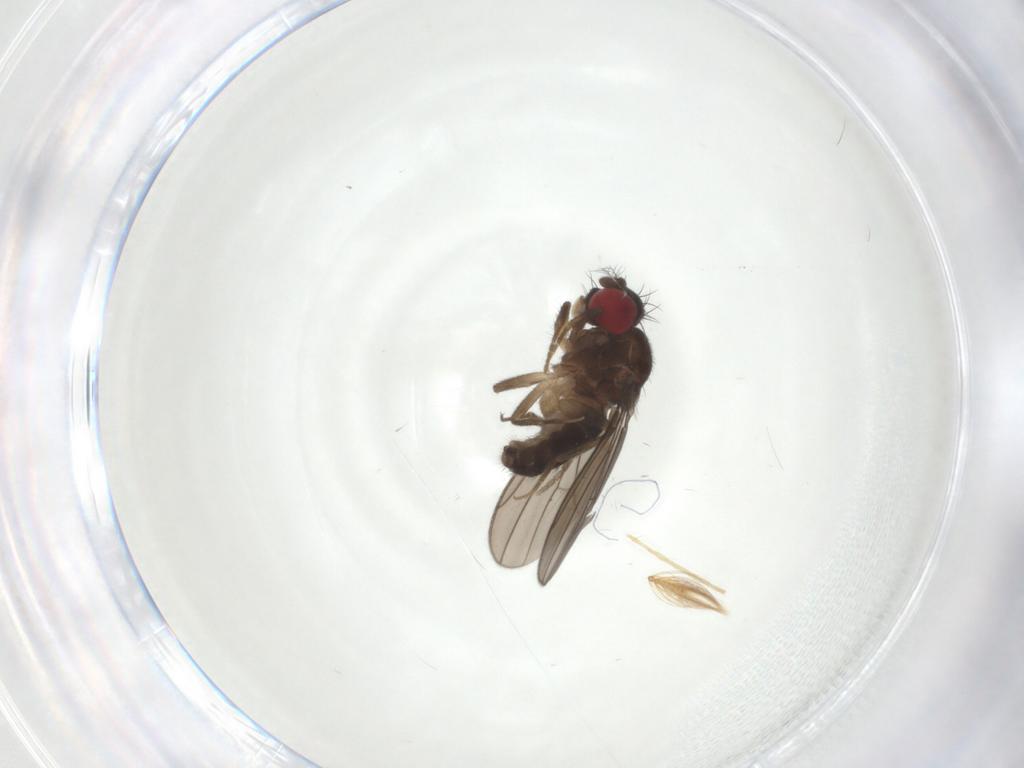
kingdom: Animalia
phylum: Arthropoda
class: Insecta
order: Diptera
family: Drosophilidae
